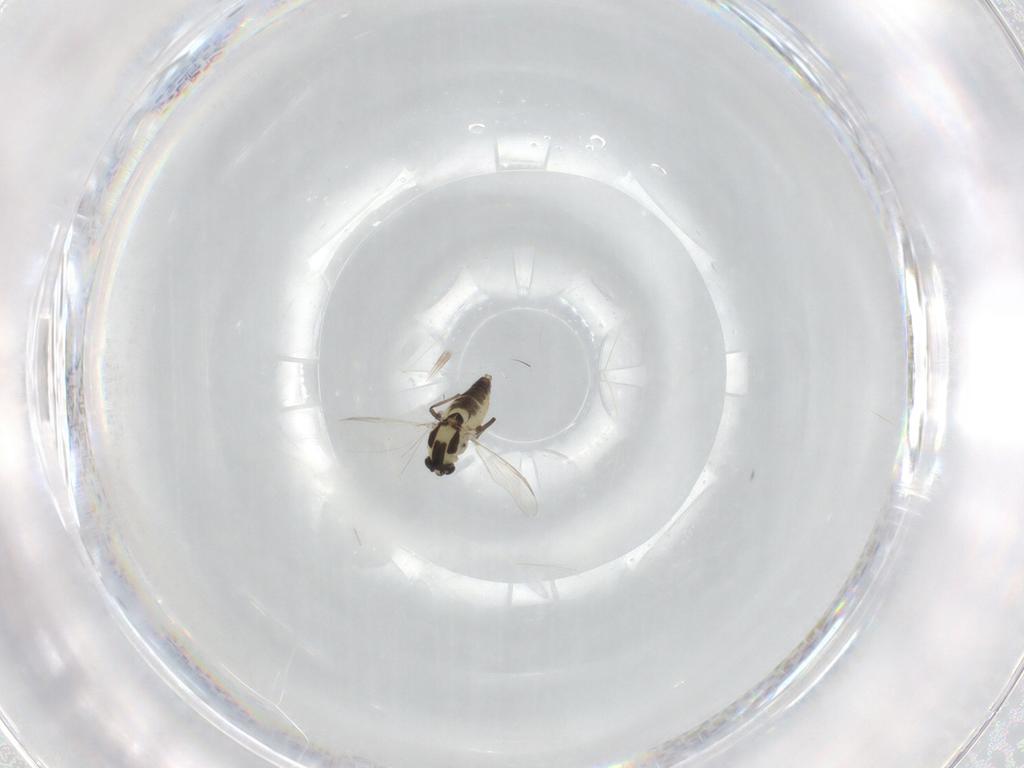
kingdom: Animalia
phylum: Arthropoda
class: Insecta
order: Diptera
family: Chironomidae
